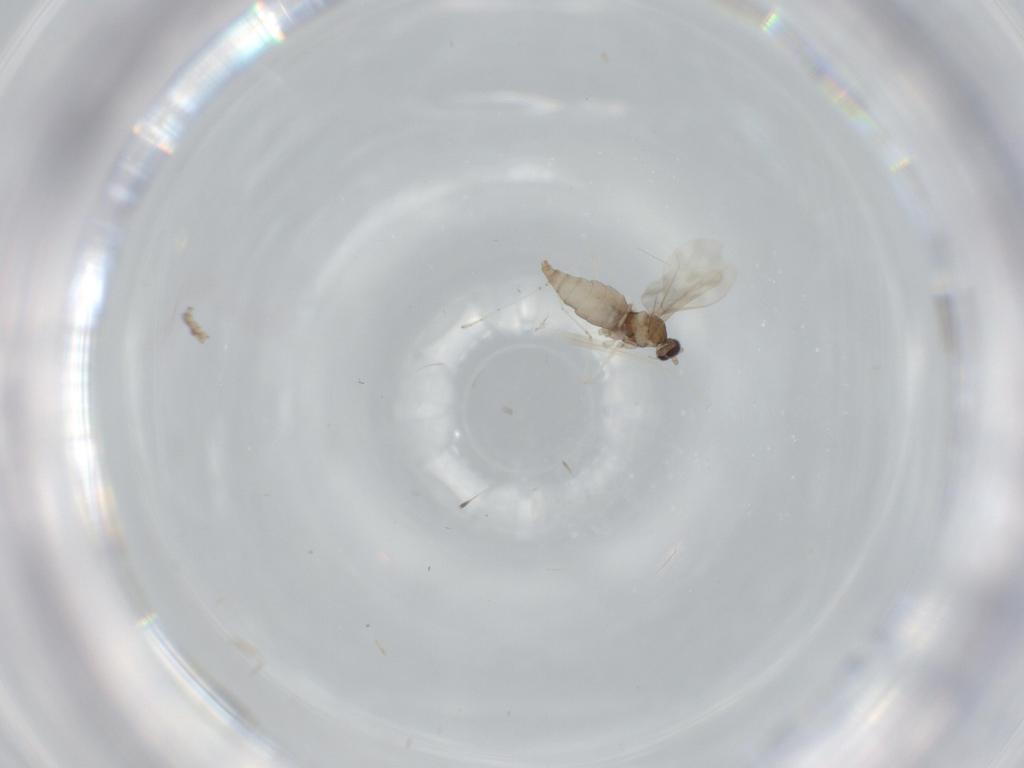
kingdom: Animalia
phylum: Arthropoda
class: Insecta
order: Diptera
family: Cecidomyiidae
